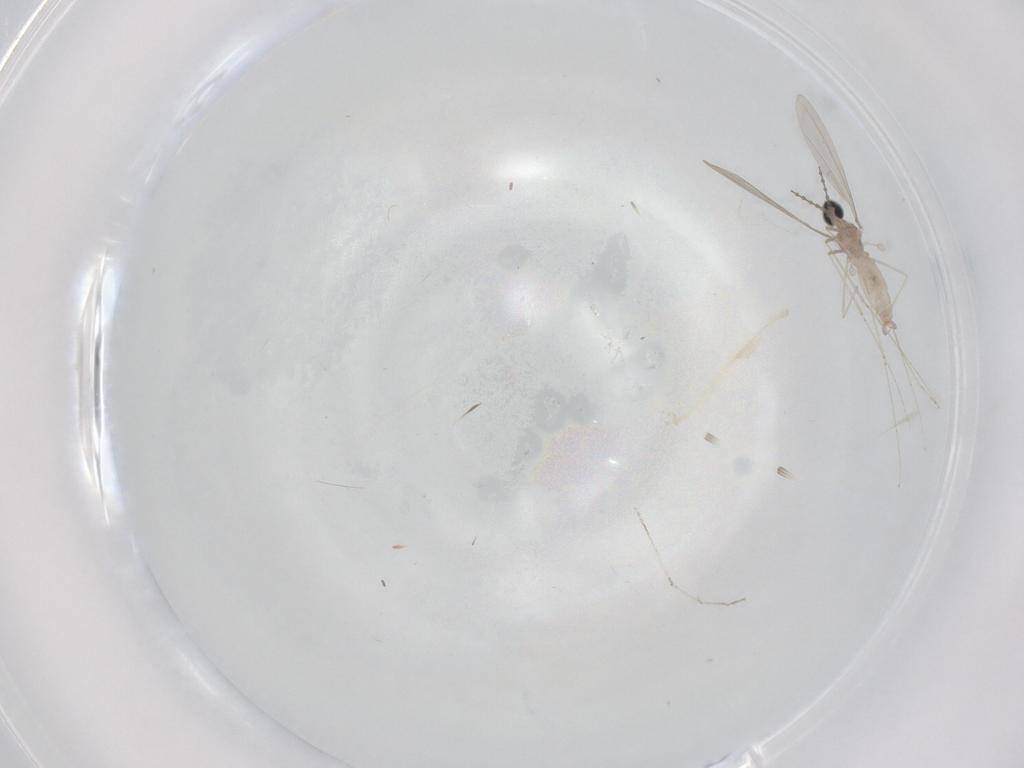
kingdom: Animalia
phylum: Arthropoda
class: Insecta
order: Diptera
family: Cecidomyiidae
